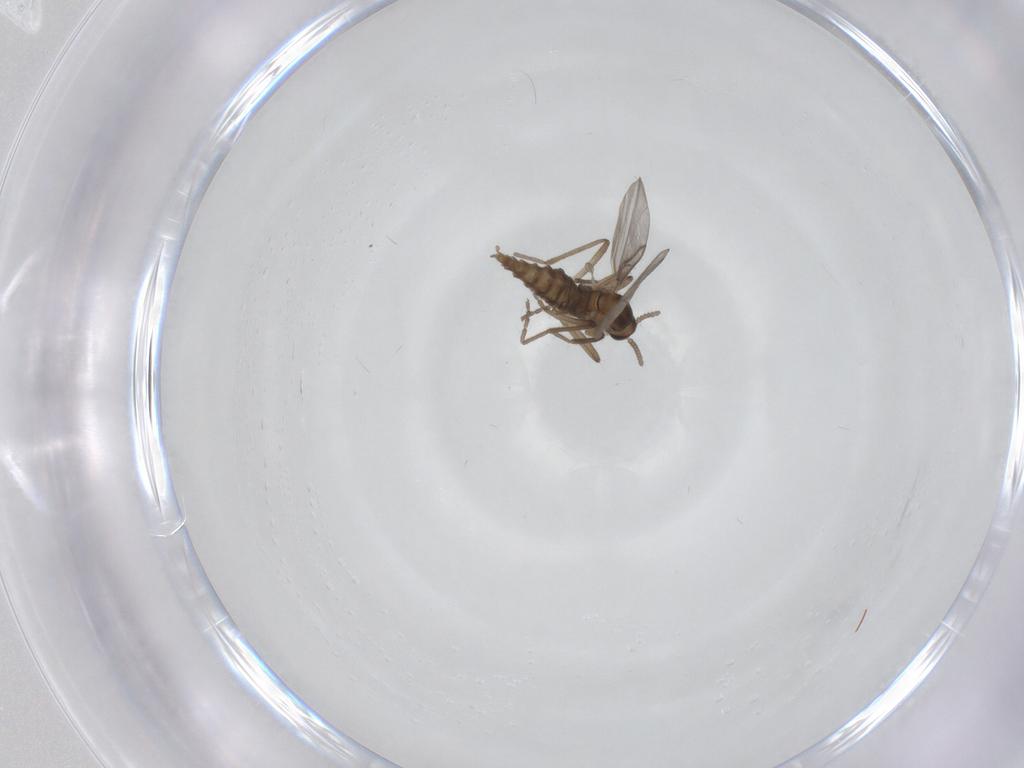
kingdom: Animalia
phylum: Arthropoda
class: Insecta
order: Diptera
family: Cecidomyiidae
